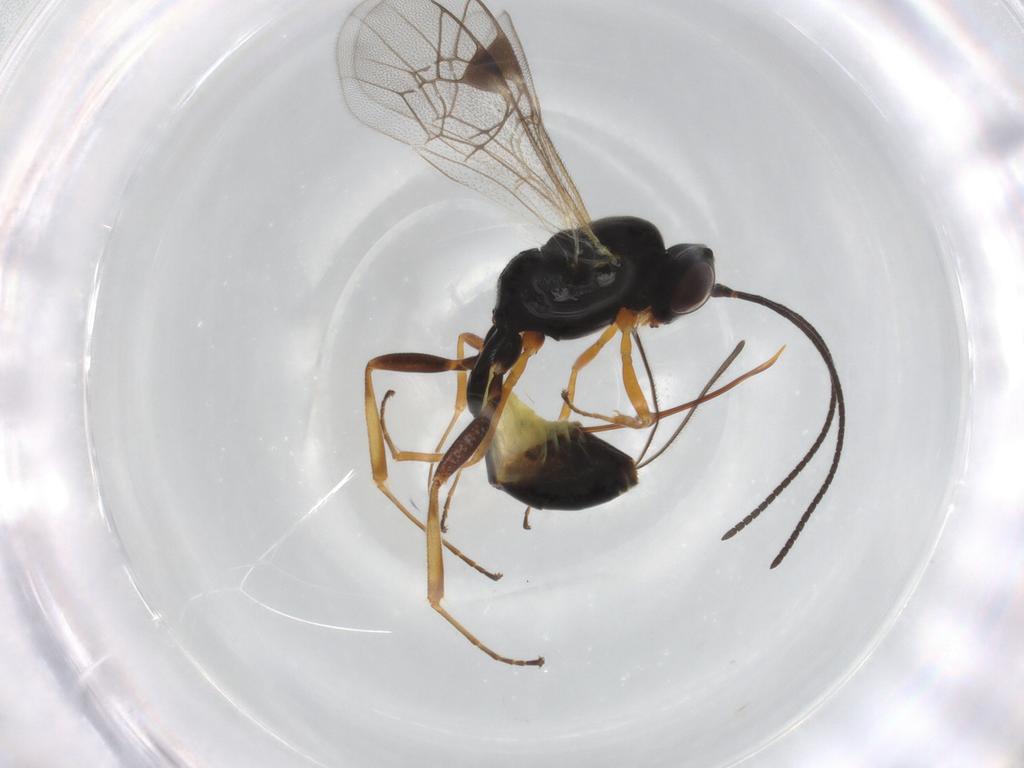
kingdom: Animalia
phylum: Arthropoda
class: Insecta
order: Hymenoptera
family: Ichneumonidae
